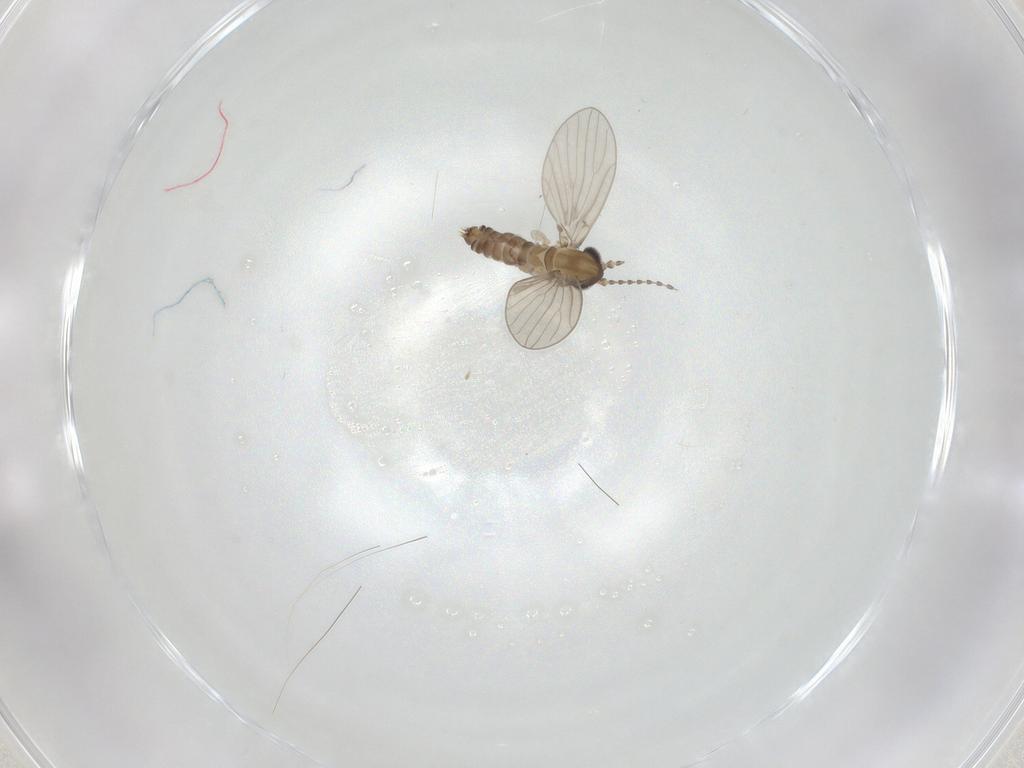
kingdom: Animalia
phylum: Arthropoda
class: Insecta
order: Diptera
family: Psychodidae
